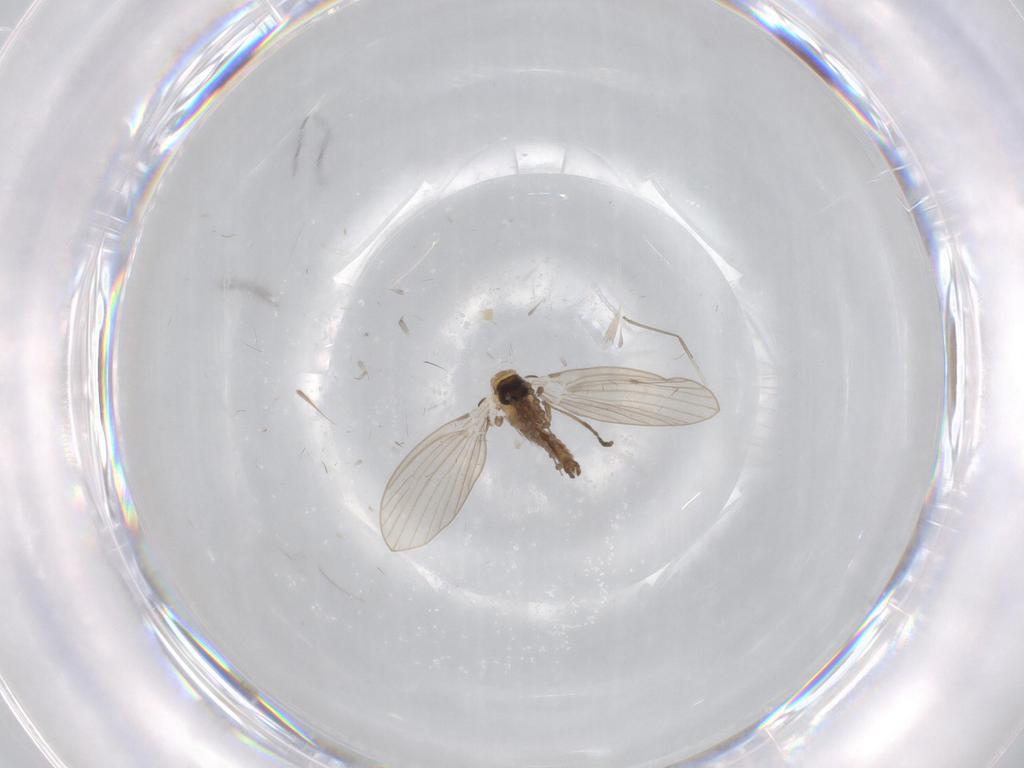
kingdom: Animalia
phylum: Arthropoda
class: Insecta
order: Diptera
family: Psychodidae
